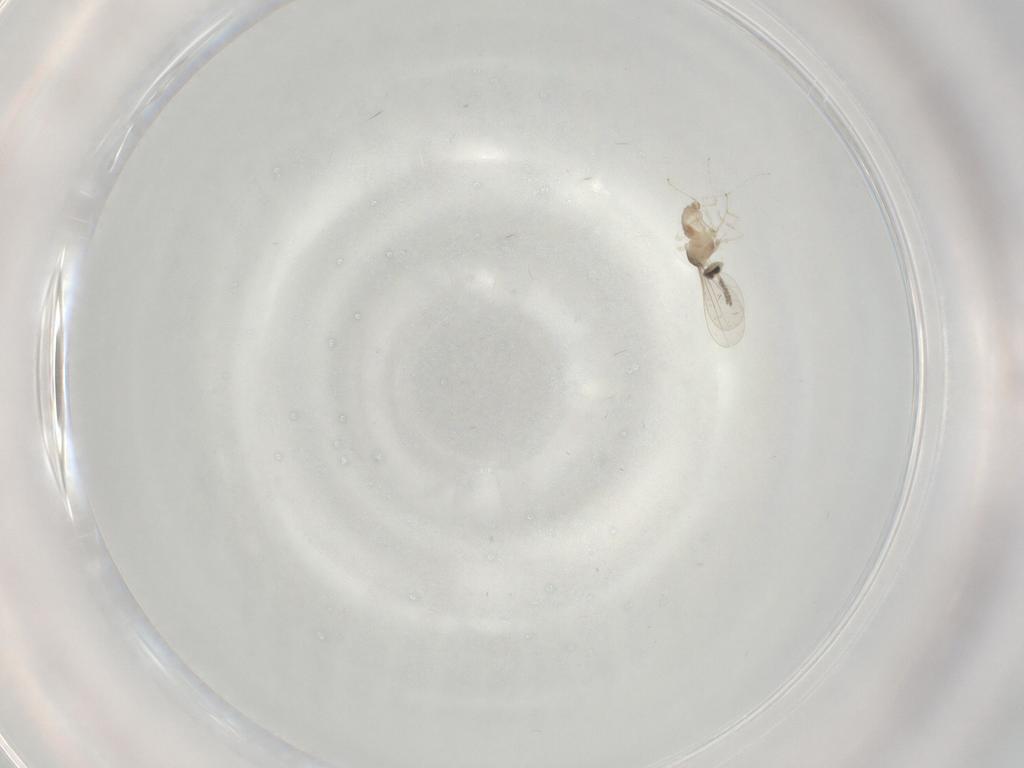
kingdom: Animalia
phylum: Arthropoda
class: Insecta
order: Diptera
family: Cecidomyiidae
